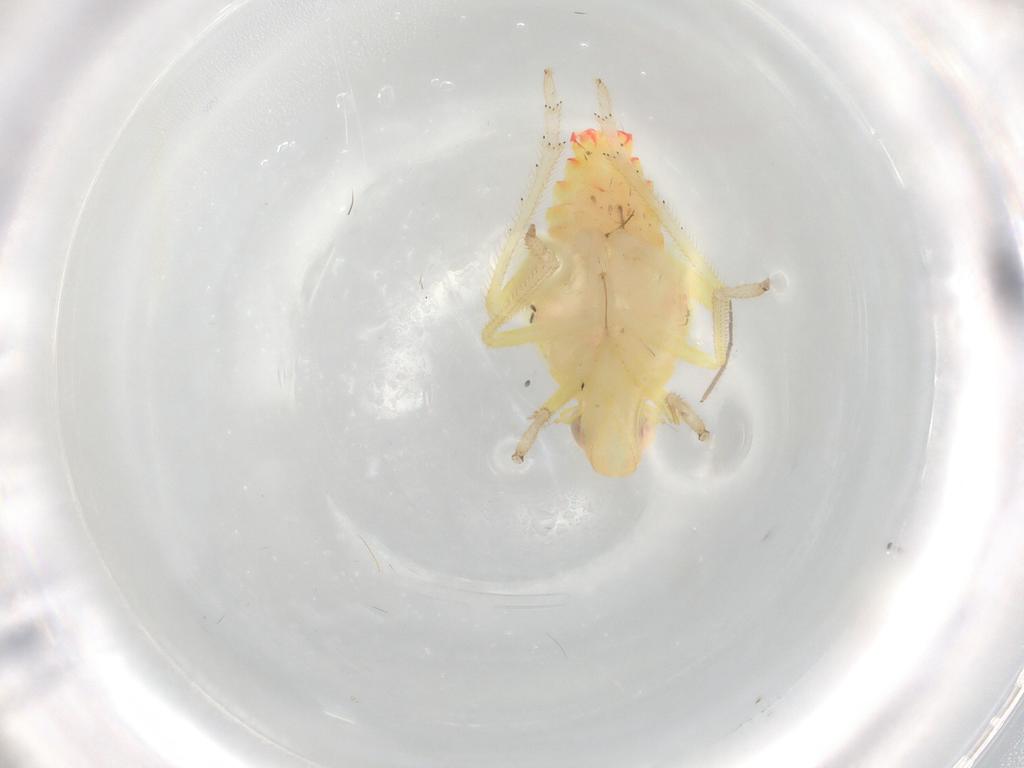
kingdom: Animalia
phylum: Arthropoda
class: Insecta
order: Hemiptera
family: Tropiduchidae
